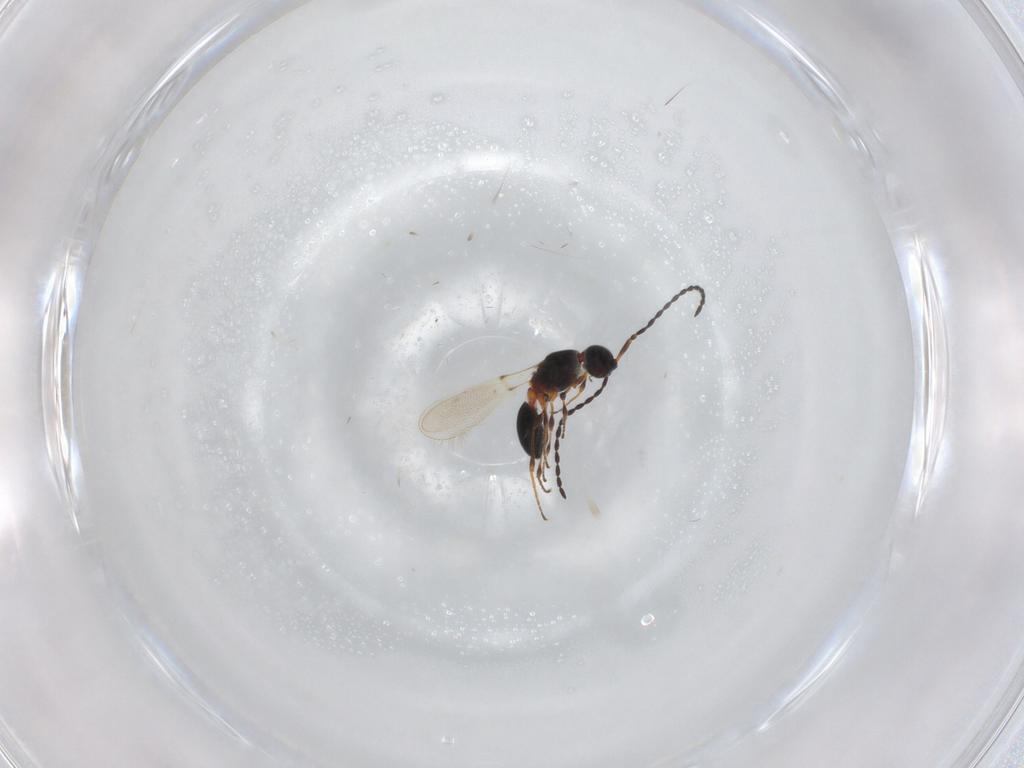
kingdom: Animalia
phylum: Arthropoda
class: Insecta
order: Hymenoptera
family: Diapriidae
